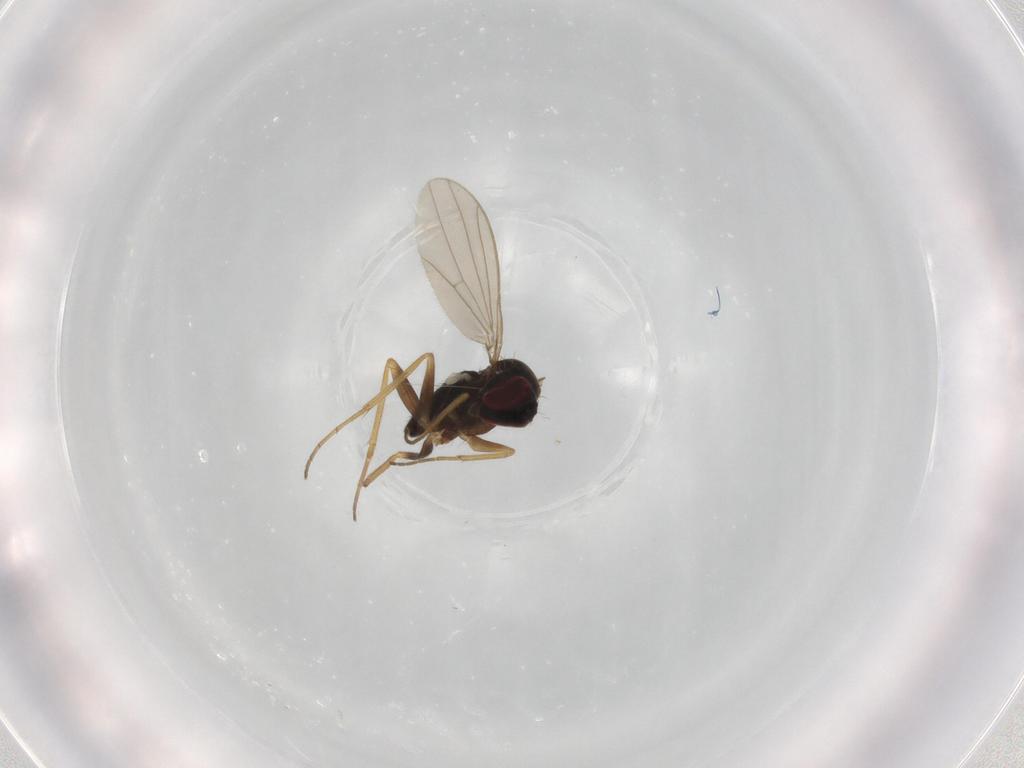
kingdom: Animalia
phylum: Arthropoda
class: Insecta
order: Diptera
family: Dolichopodidae
